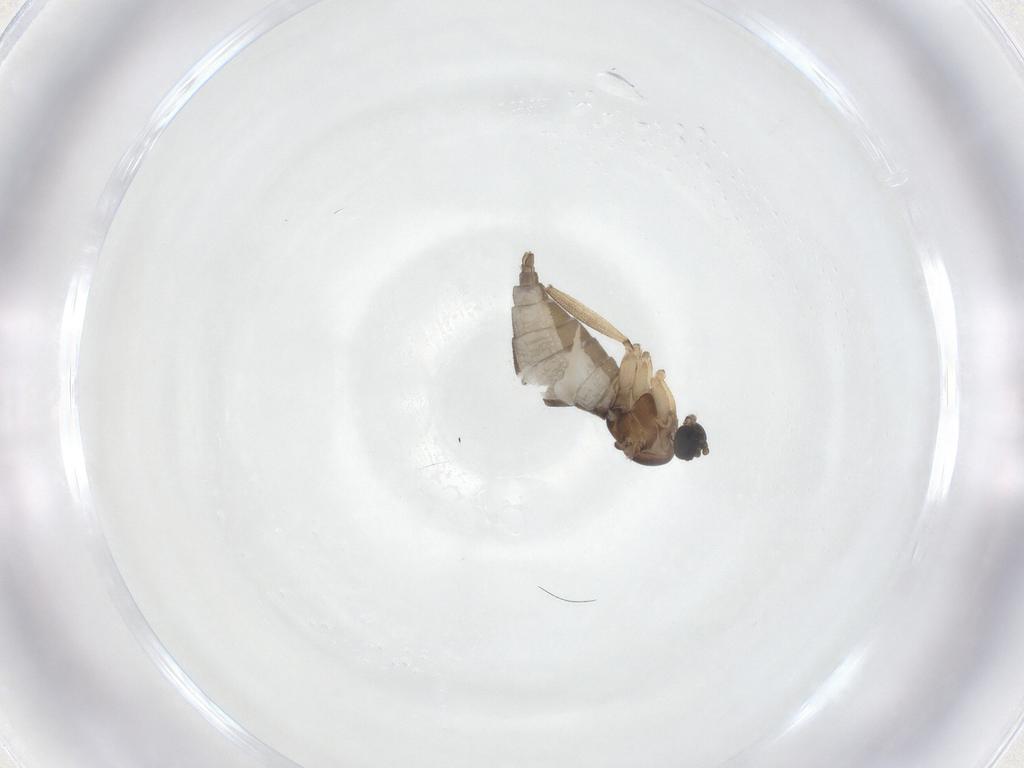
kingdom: Animalia
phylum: Arthropoda
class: Insecta
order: Diptera
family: Sciaridae
